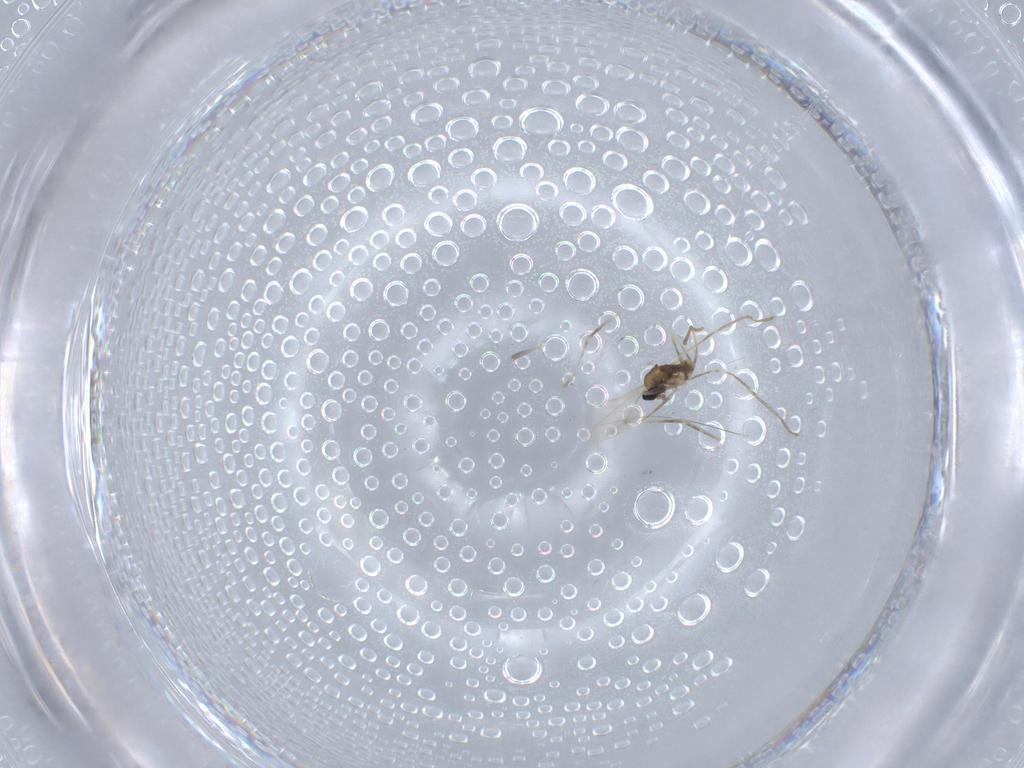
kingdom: Animalia
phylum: Arthropoda
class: Insecta
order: Diptera
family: Cecidomyiidae
